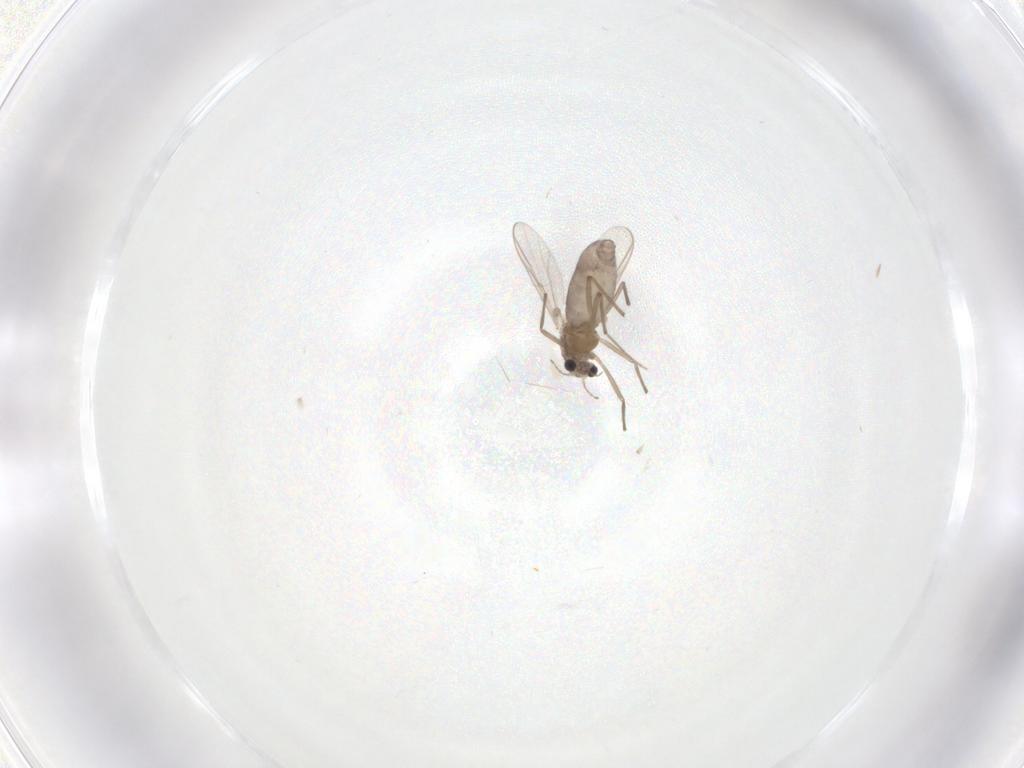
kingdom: Animalia
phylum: Arthropoda
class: Insecta
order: Diptera
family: Chironomidae
